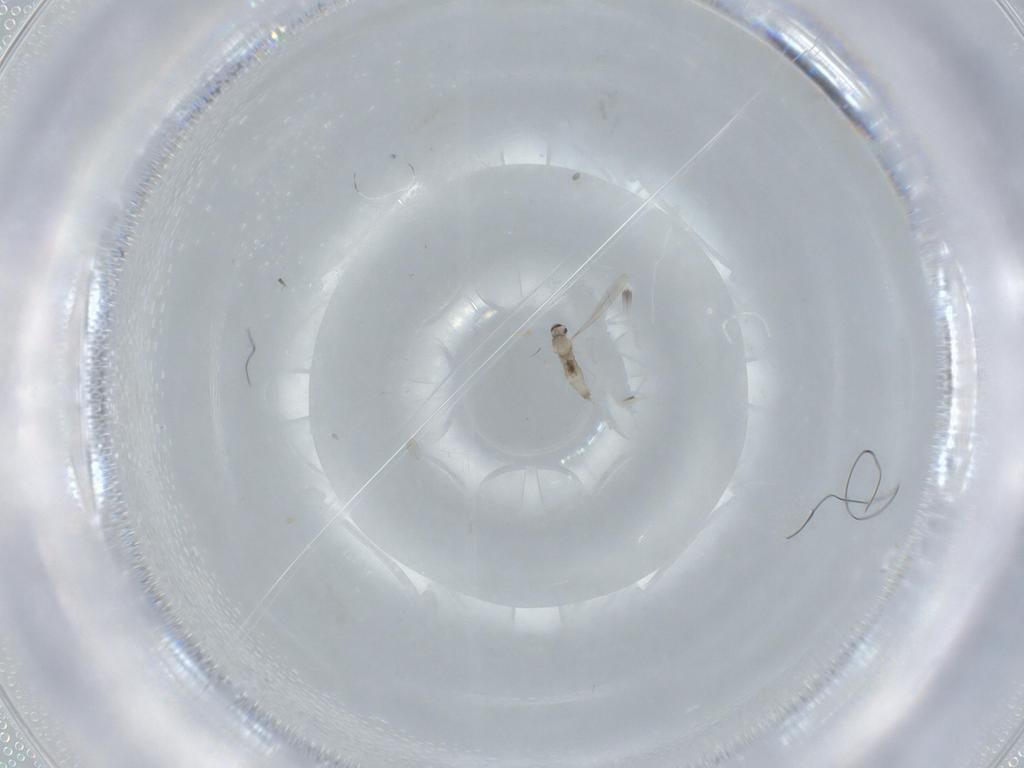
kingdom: Animalia
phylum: Arthropoda
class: Insecta
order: Diptera
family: Cecidomyiidae
